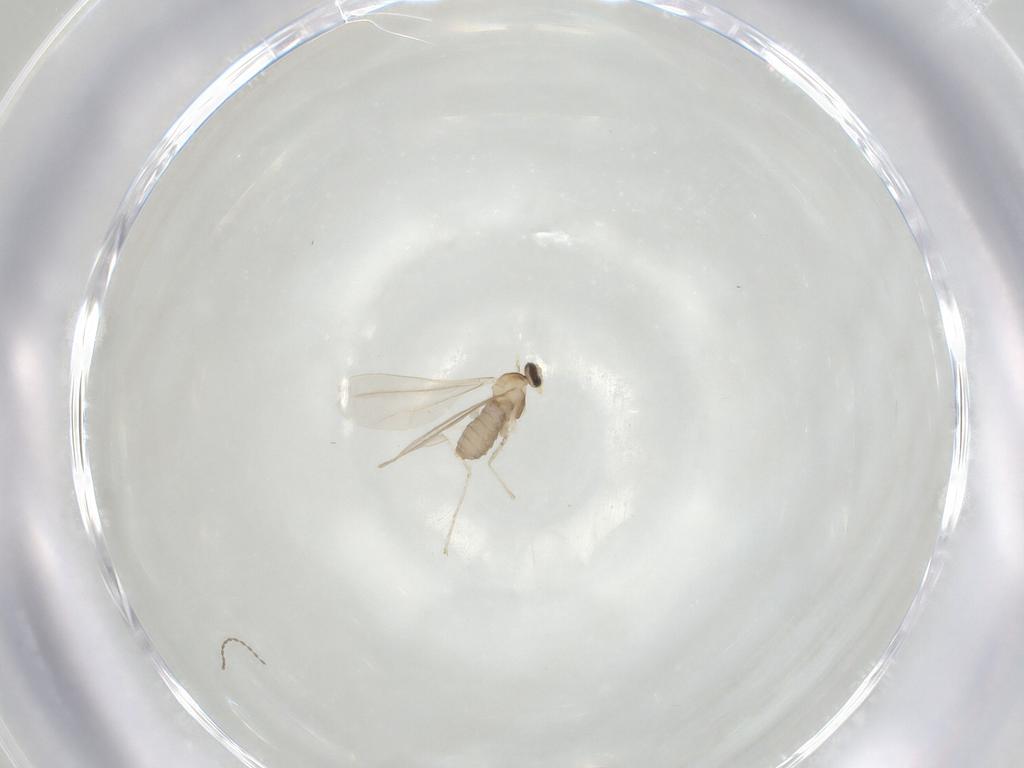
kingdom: Animalia
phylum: Arthropoda
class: Insecta
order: Diptera
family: Cecidomyiidae
